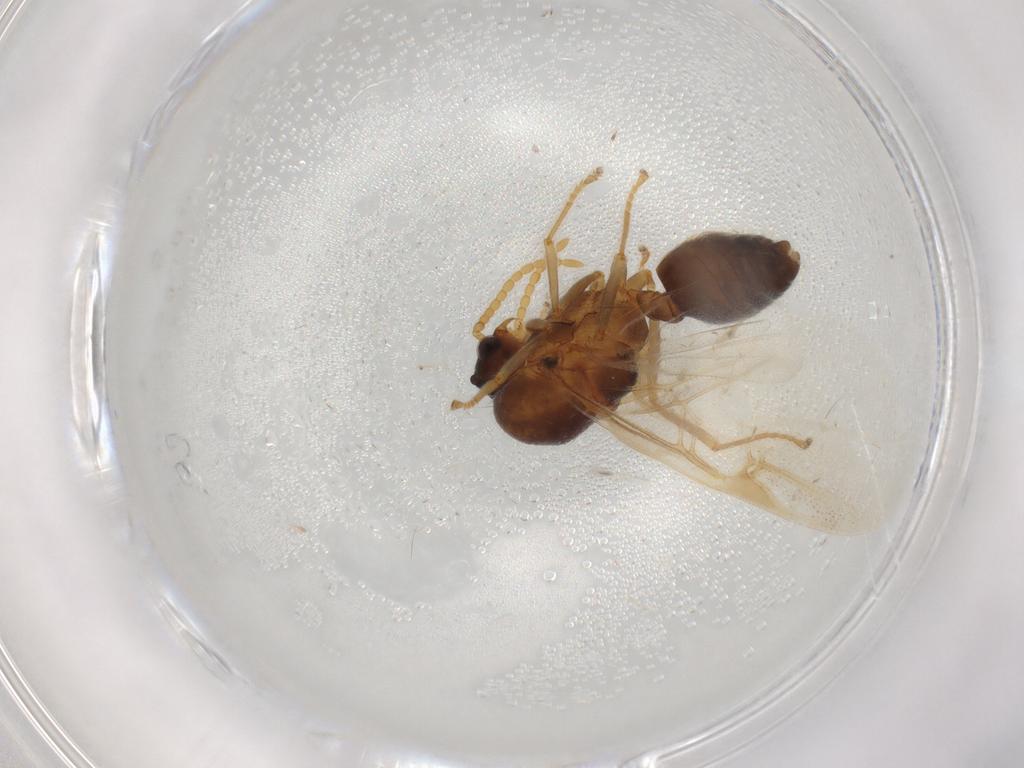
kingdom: Animalia
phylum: Arthropoda
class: Insecta
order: Hymenoptera
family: Formicidae
